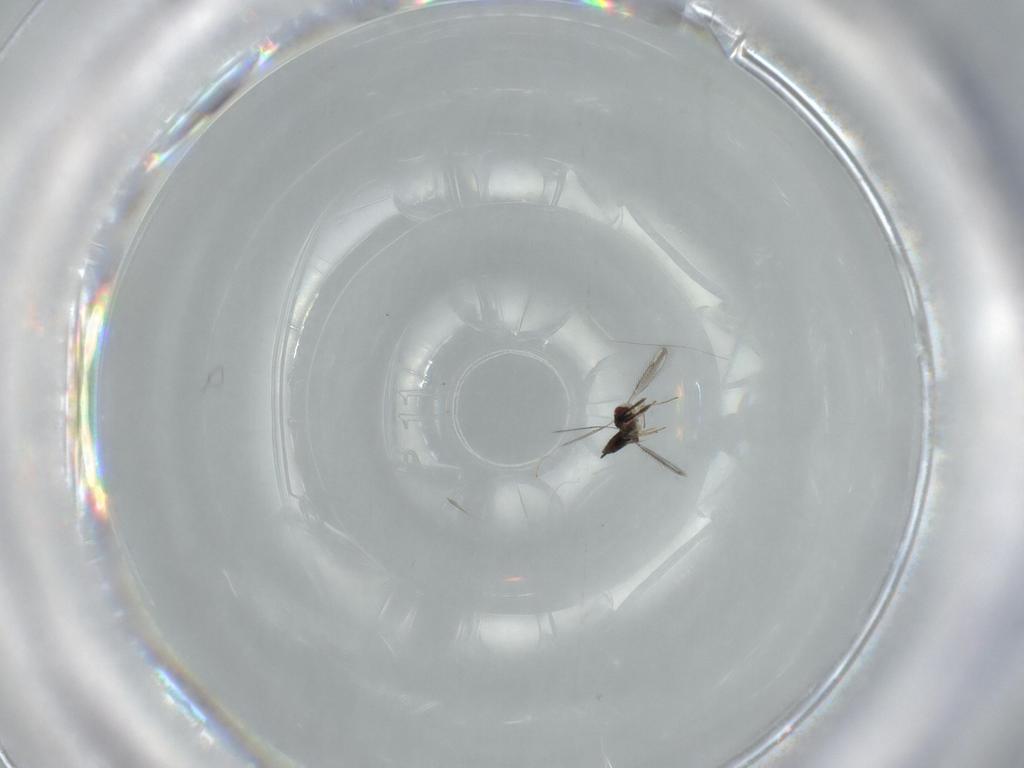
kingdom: Animalia
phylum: Arthropoda
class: Insecta
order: Hymenoptera
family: Pteromalidae
